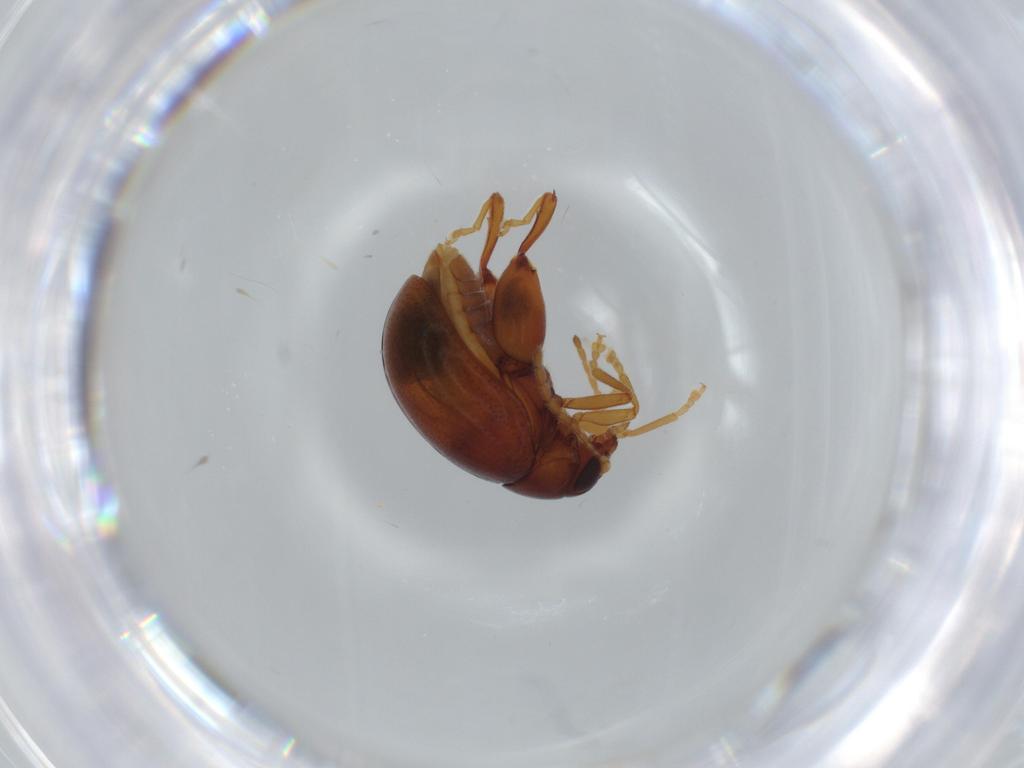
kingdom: Animalia
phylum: Arthropoda
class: Insecta
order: Coleoptera
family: Chrysomelidae
